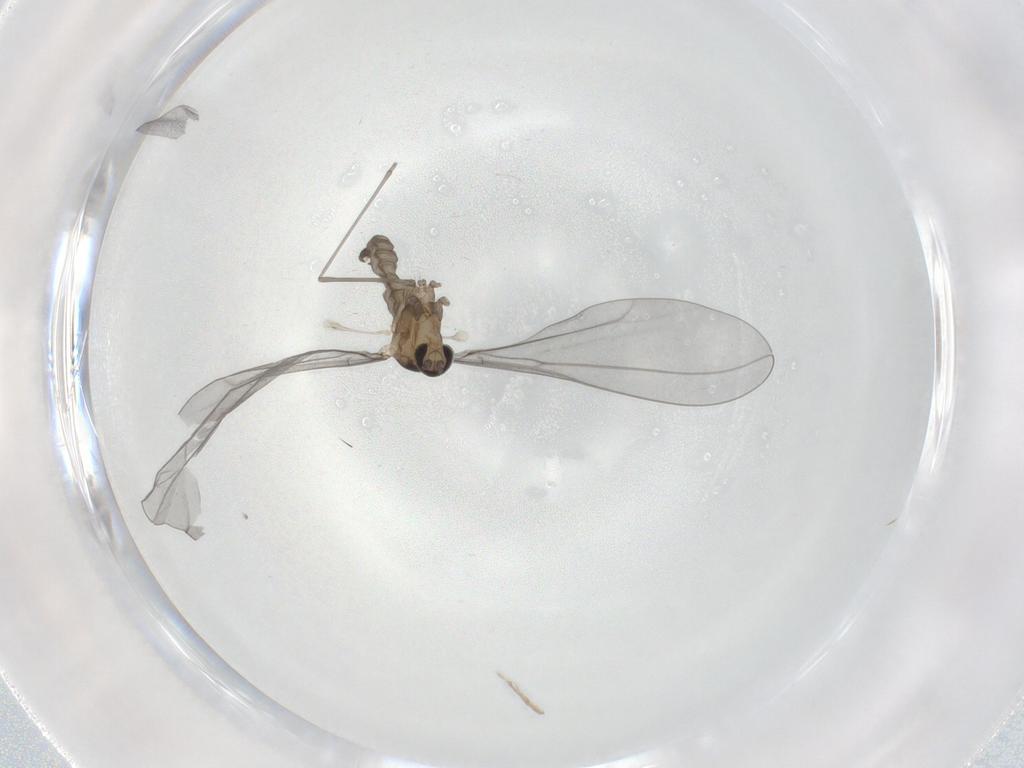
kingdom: Animalia
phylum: Arthropoda
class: Insecta
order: Diptera
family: Cecidomyiidae
